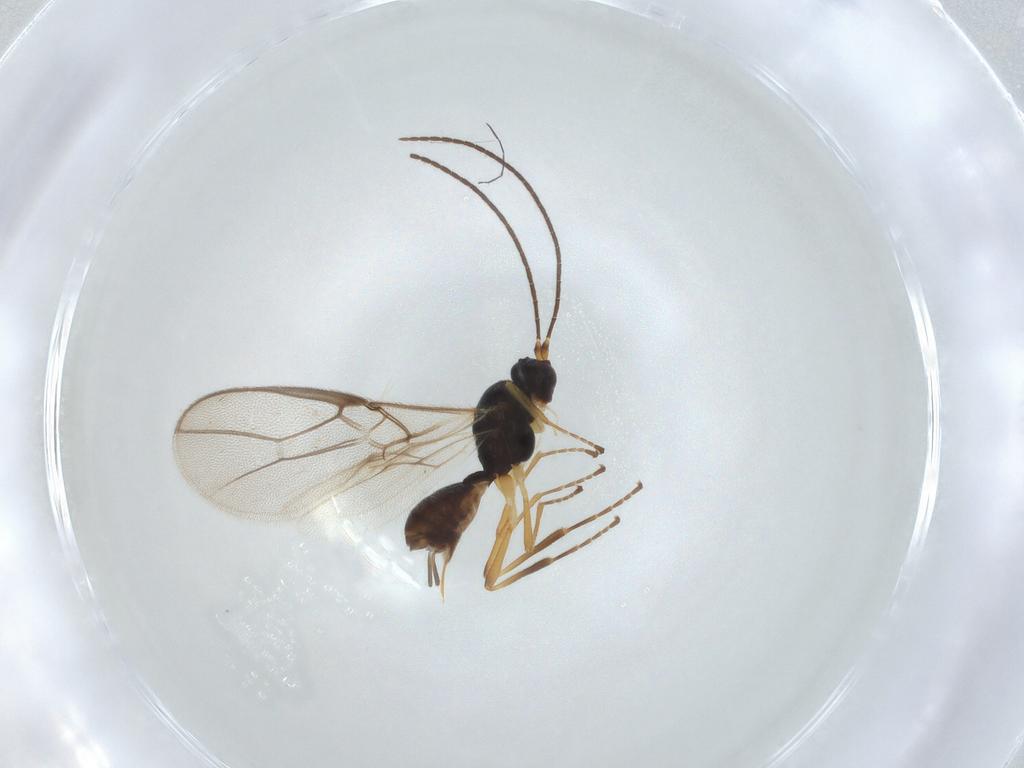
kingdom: Animalia
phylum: Arthropoda
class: Insecta
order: Hymenoptera
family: Braconidae
